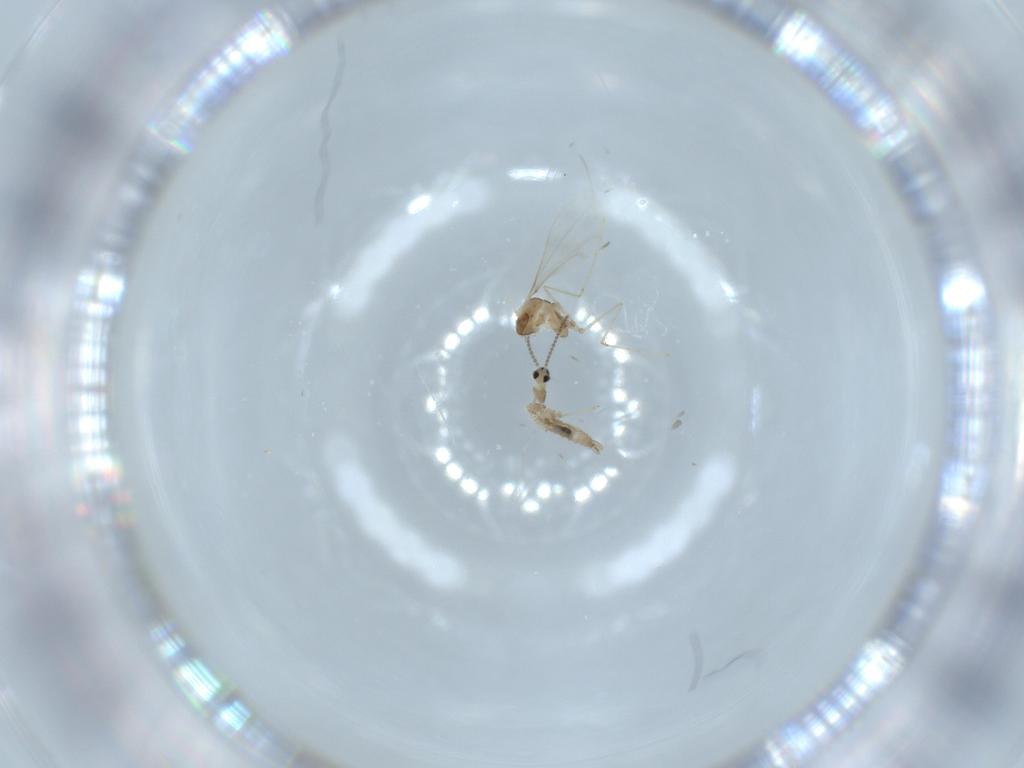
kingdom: Animalia
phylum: Arthropoda
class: Insecta
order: Diptera
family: Cecidomyiidae
